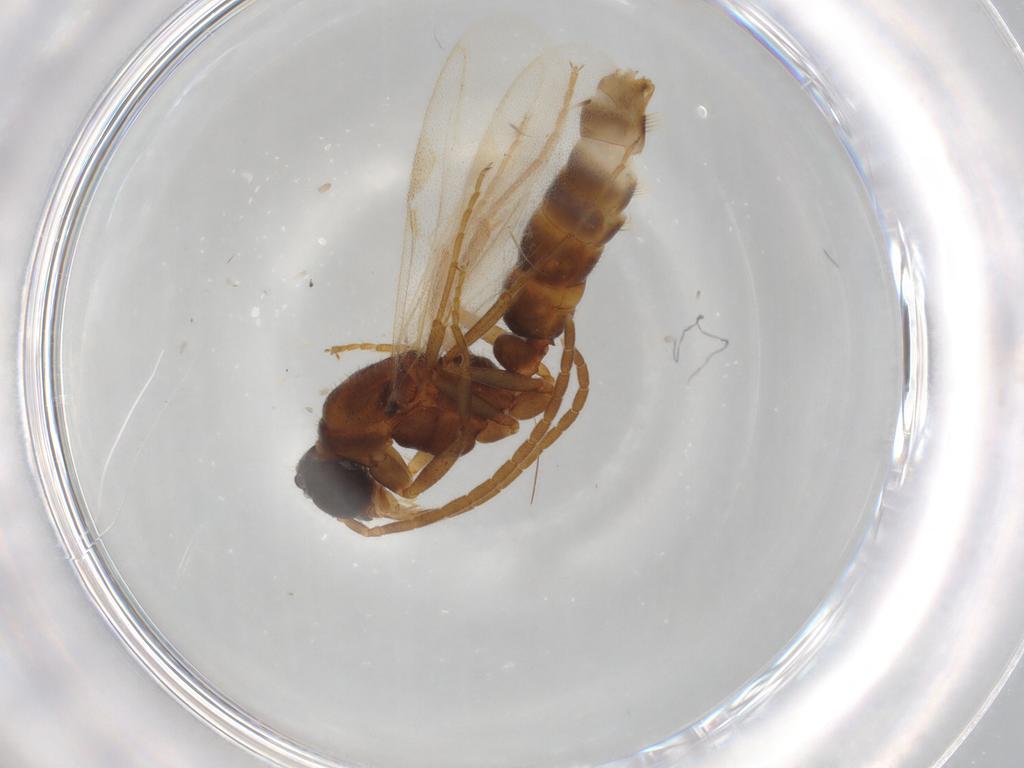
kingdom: Animalia
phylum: Arthropoda
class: Insecta
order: Hymenoptera
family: Formicidae
